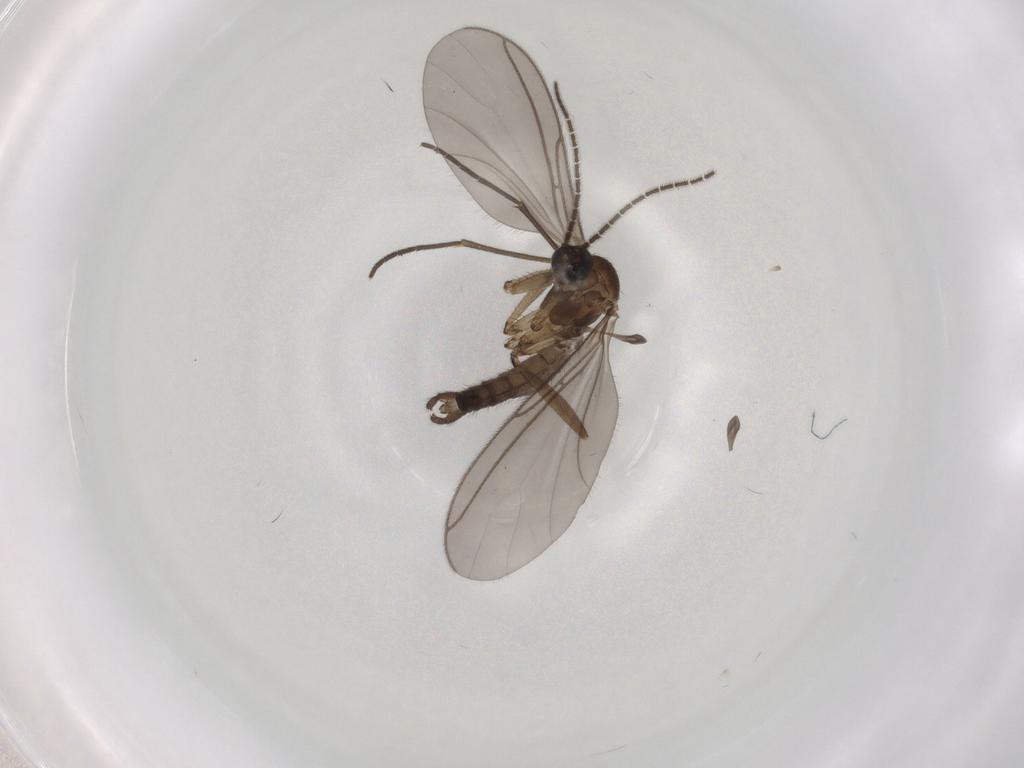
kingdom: Animalia
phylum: Arthropoda
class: Insecta
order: Diptera
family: Sciaridae
